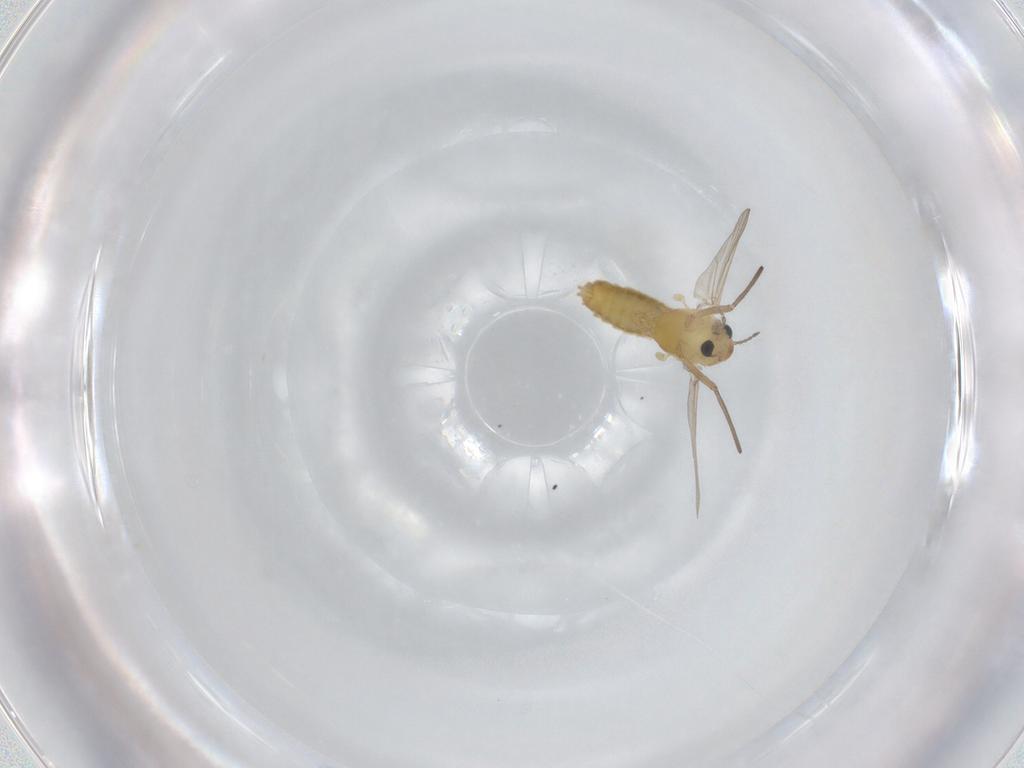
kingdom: Animalia
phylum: Arthropoda
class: Insecta
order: Diptera
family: Chironomidae
